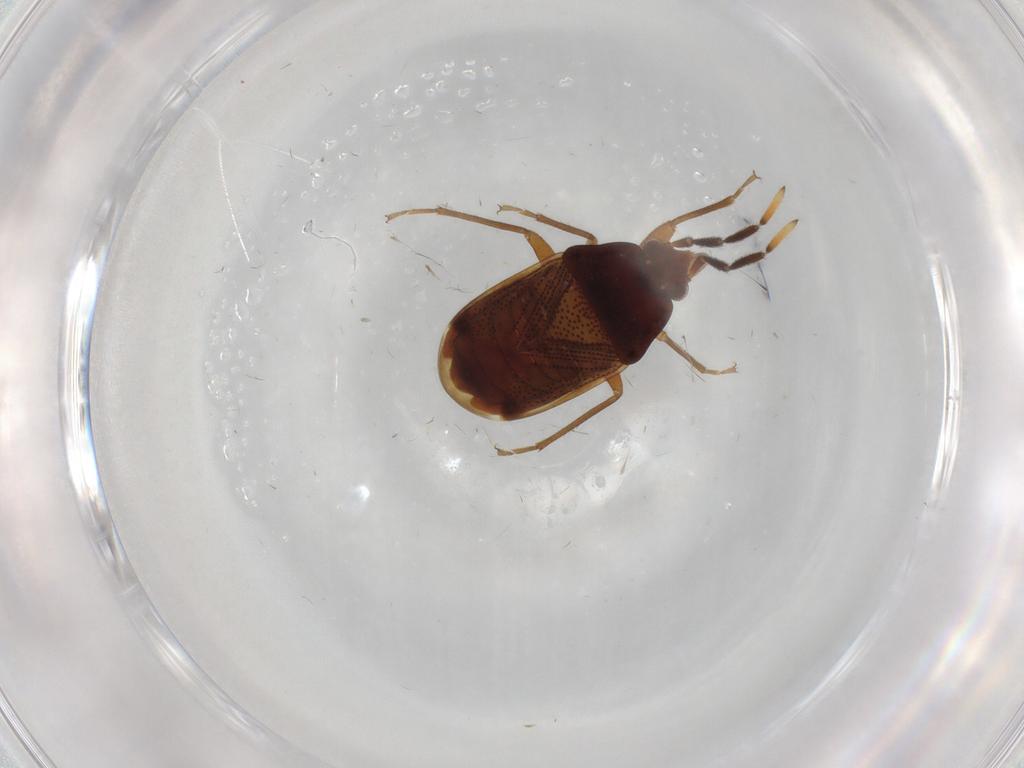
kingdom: Animalia
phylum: Arthropoda
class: Insecta
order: Hemiptera
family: Rhyparochromidae
